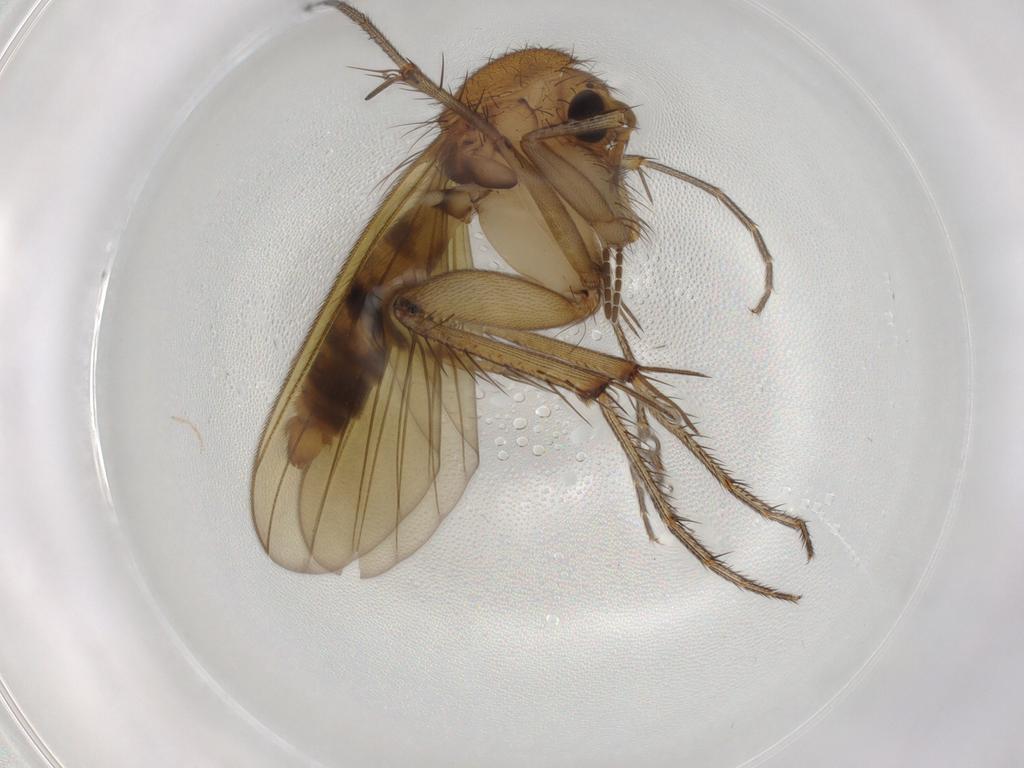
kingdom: Animalia
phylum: Arthropoda
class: Insecta
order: Diptera
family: Mycetophilidae
